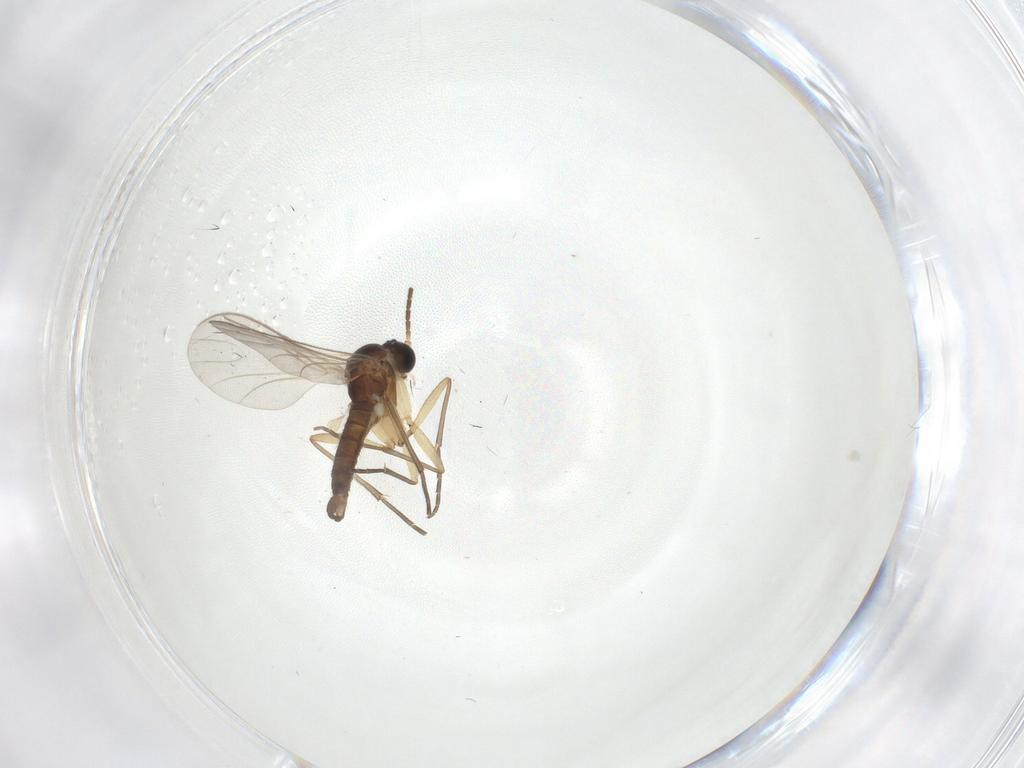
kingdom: Animalia
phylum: Arthropoda
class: Insecta
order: Diptera
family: Sciaridae
